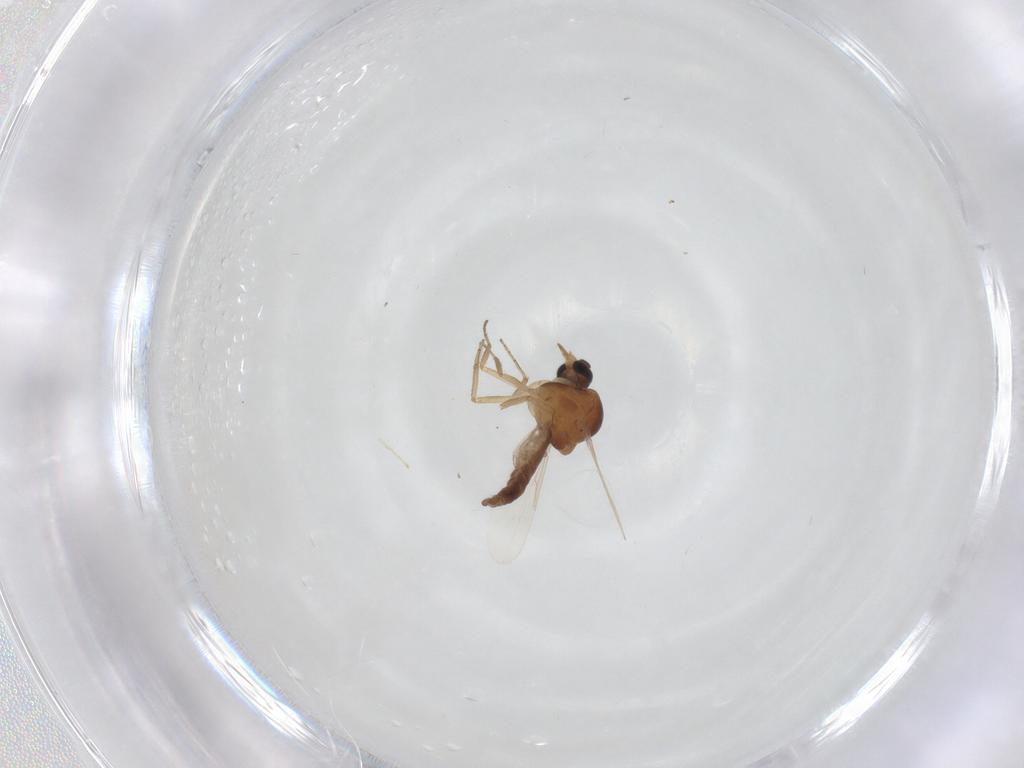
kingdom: Animalia
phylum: Arthropoda
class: Insecta
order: Diptera
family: Cecidomyiidae
